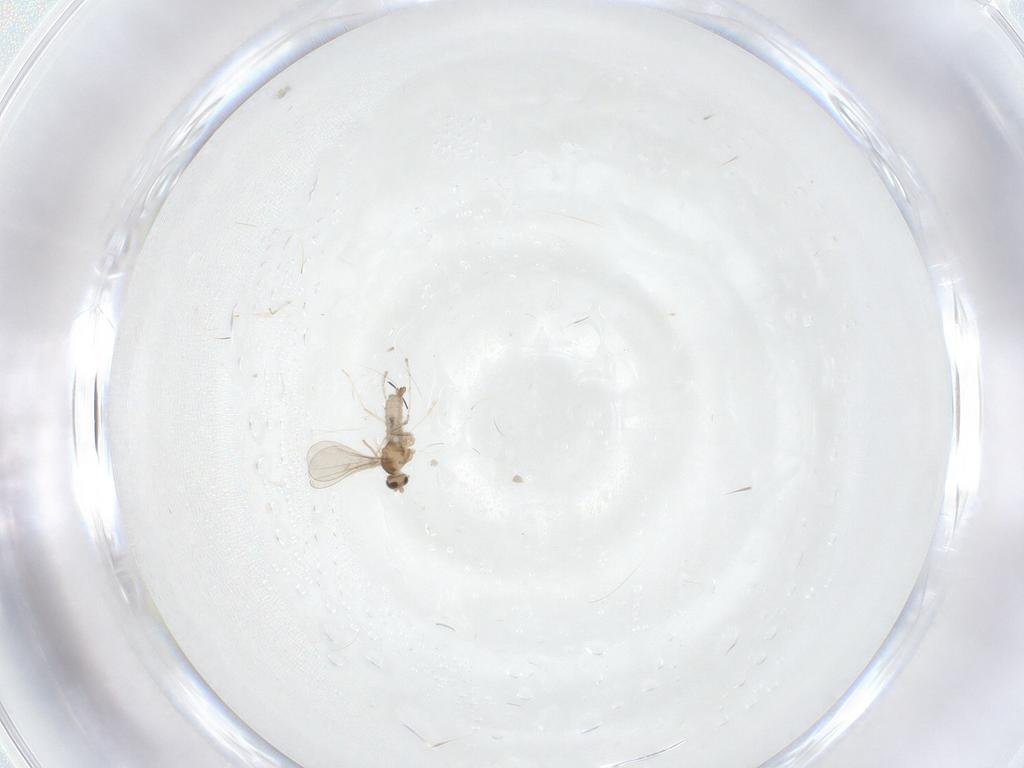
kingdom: Animalia
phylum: Arthropoda
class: Insecta
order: Diptera
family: Cecidomyiidae
